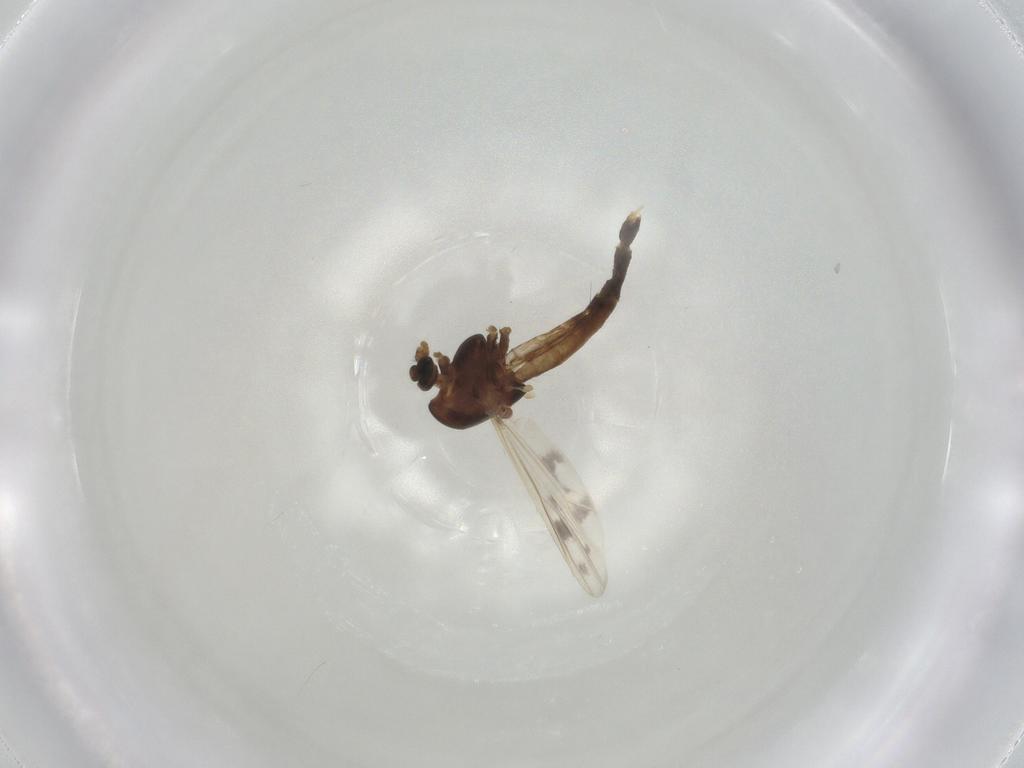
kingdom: Animalia
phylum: Arthropoda
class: Insecta
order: Diptera
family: Chironomidae
